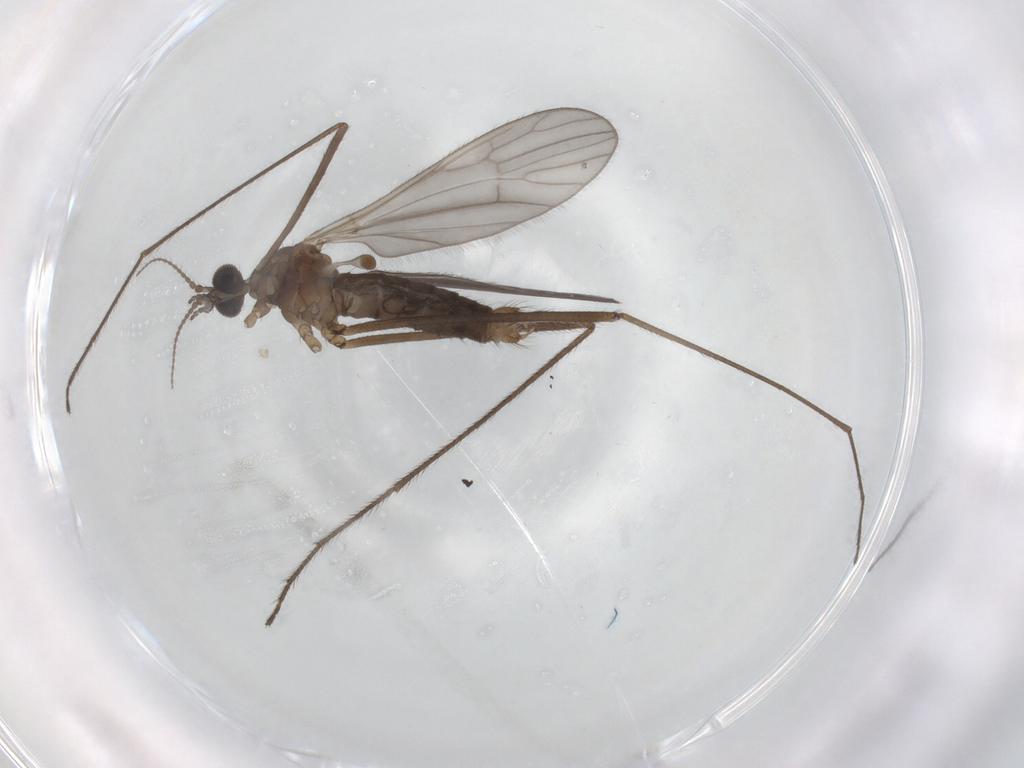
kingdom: Animalia
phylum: Arthropoda
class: Insecta
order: Diptera
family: Limoniidae
